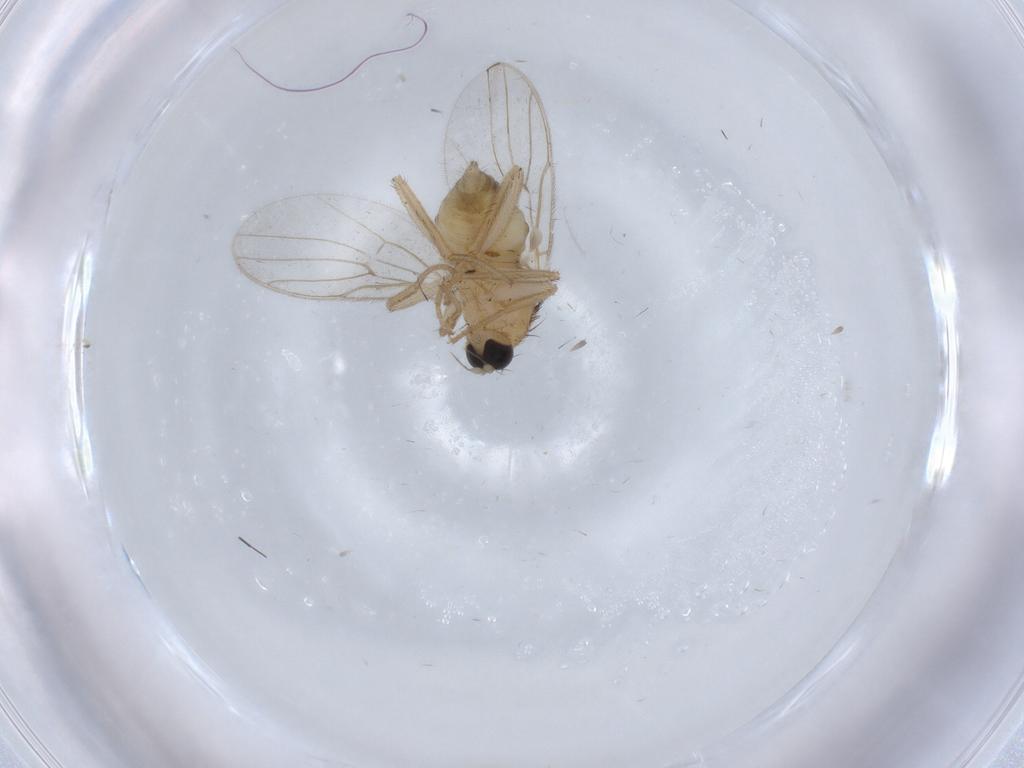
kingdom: Animalia
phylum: Arthropoda
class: Insecta
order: Diptera
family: Hybotidae
